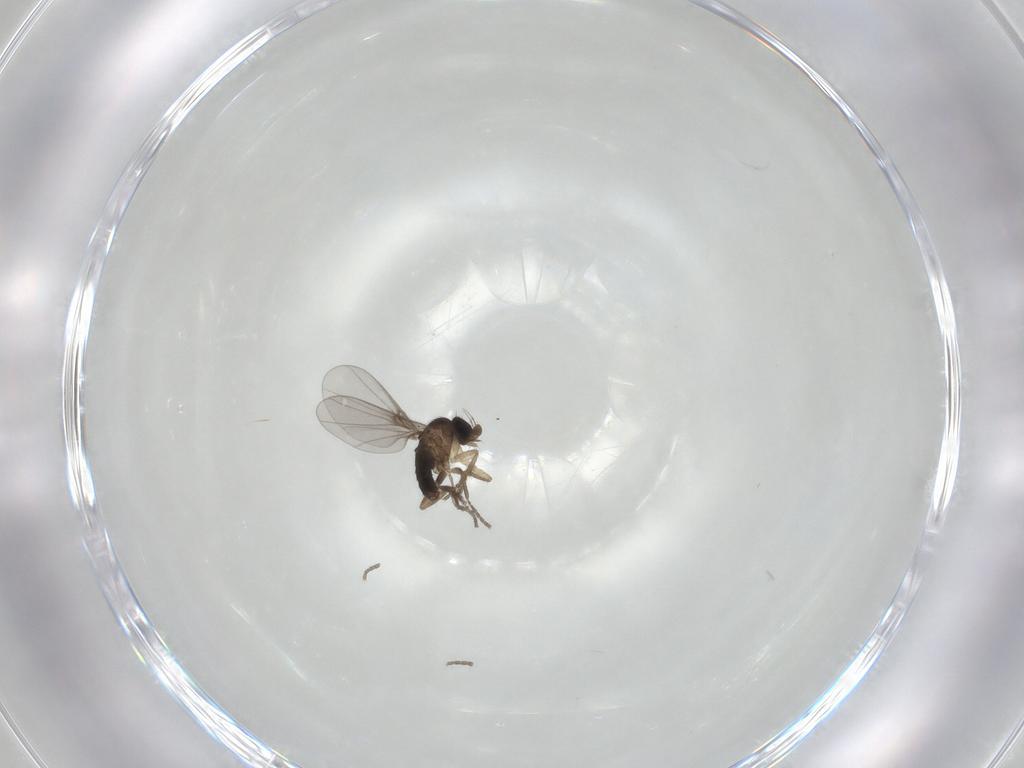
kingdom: Animalia
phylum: Arthropoda
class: Insecta
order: Diptera
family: Phoridae
